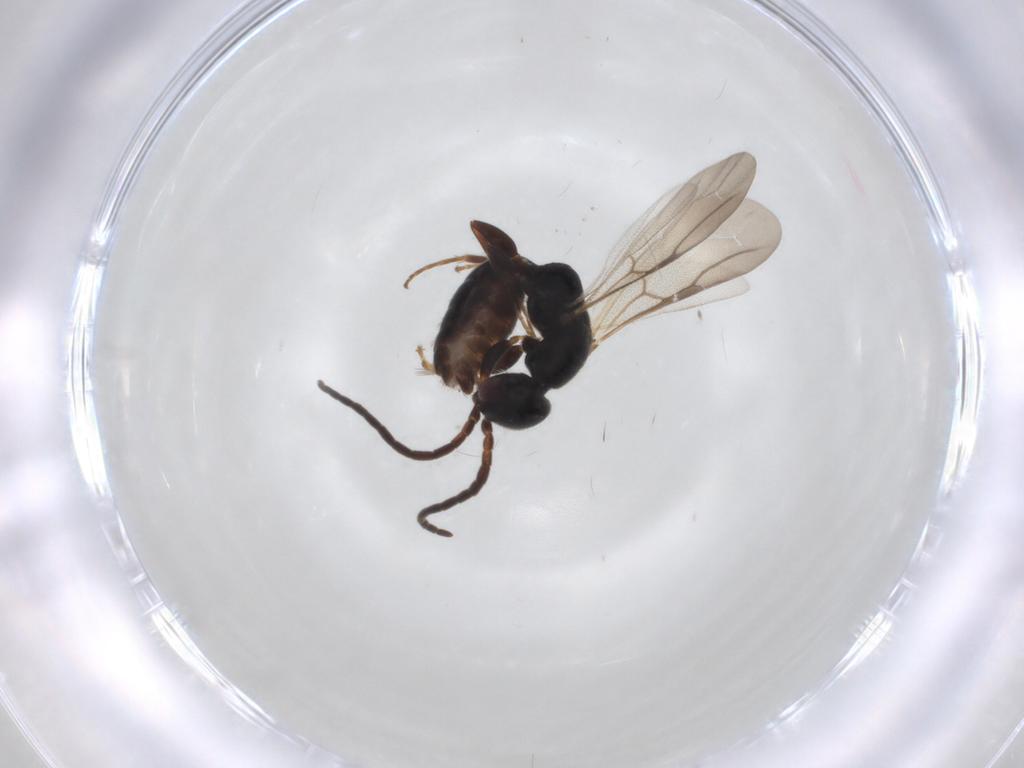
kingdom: Animalia
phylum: Arthropoda
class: Insecta
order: Hymenoptera
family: Bethylidae
